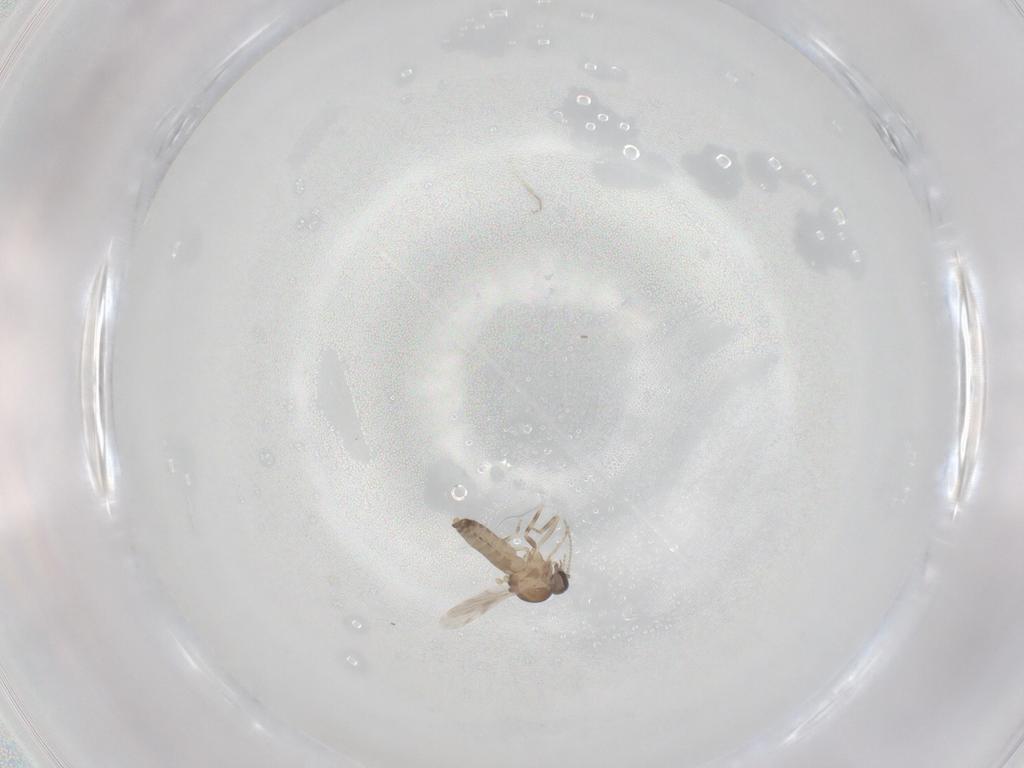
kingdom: Animalia
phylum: Arthropoda
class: Insecta
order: Diptera
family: Ceratopogonidae
